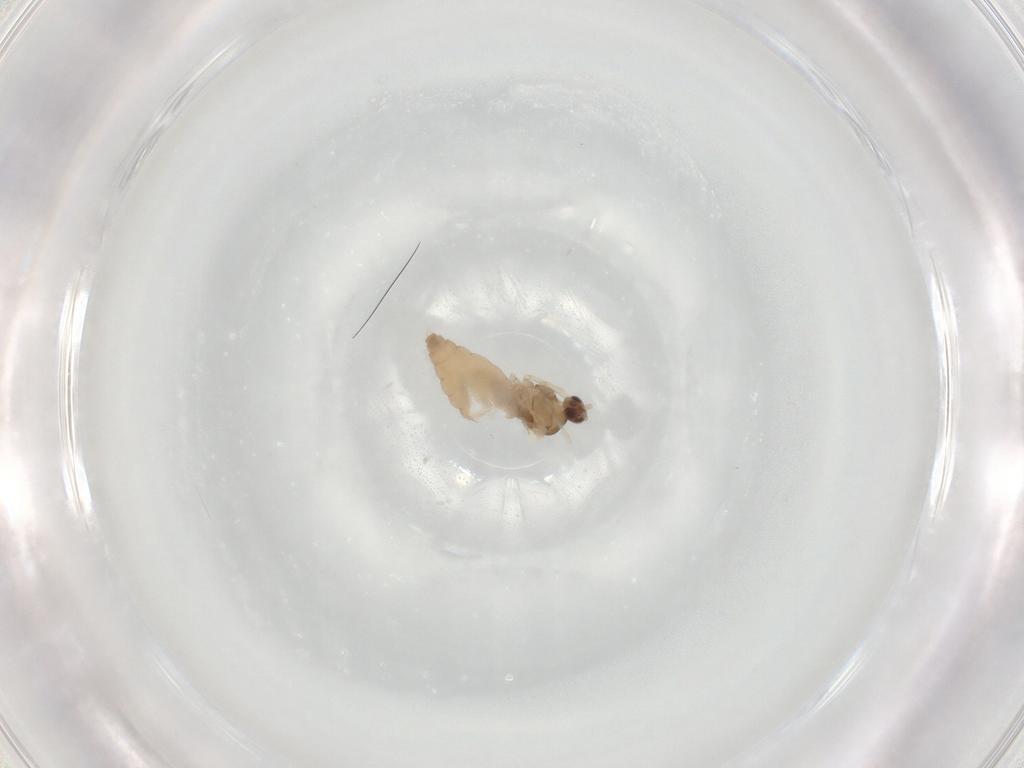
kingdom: Animalia
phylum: Arthropoda
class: Insecta
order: Diptera
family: Cecidomyiidae
